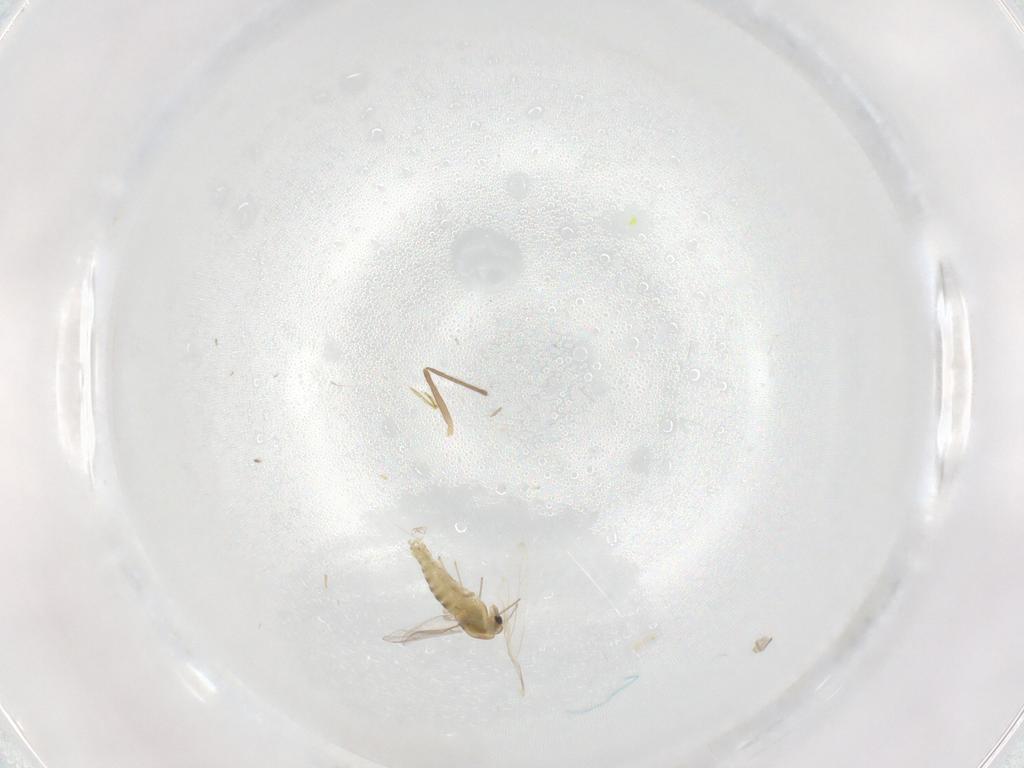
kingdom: Animalia
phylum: Arthropoda
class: Insecta
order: Diptera
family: Chironomidae
